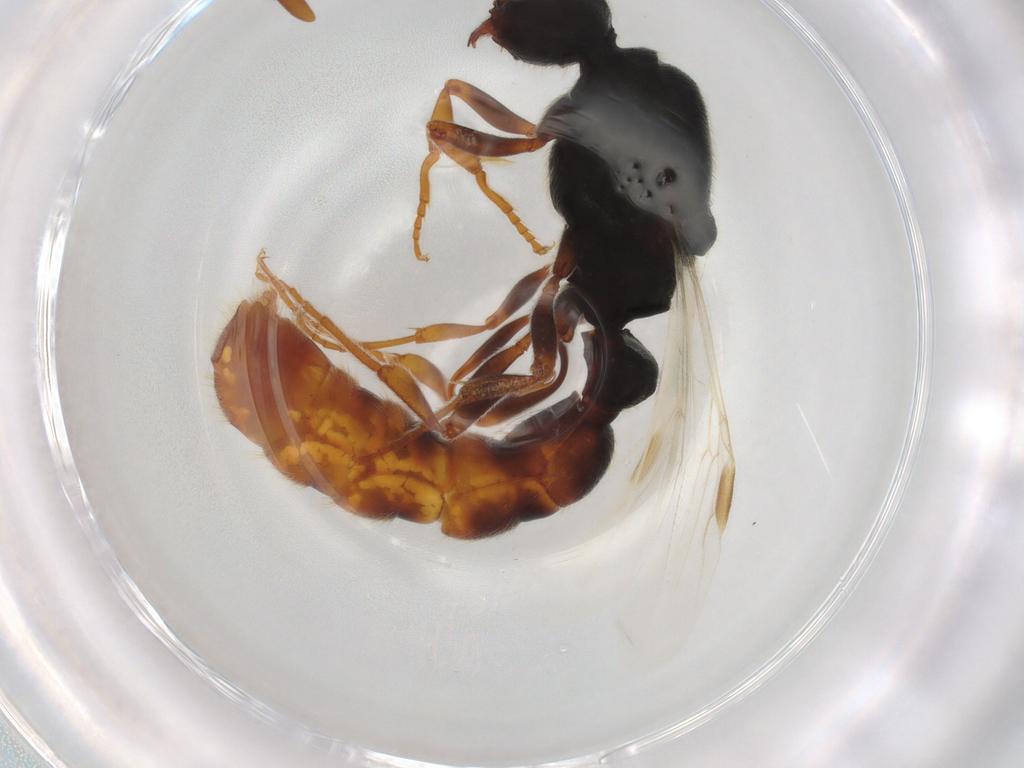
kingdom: Animalia
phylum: Arthropoda
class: Insecta
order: Hymenoptera
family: Formicidae
